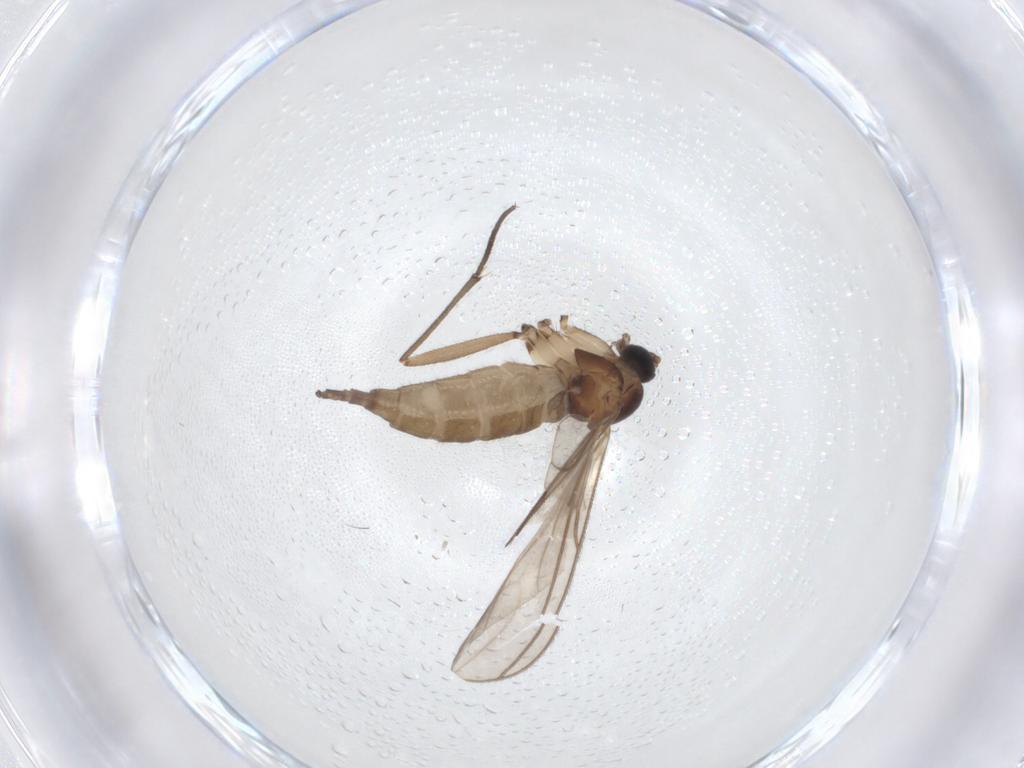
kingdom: Animalia
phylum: Arthropoda
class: Insecta
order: Diptera
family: Sciaridae
